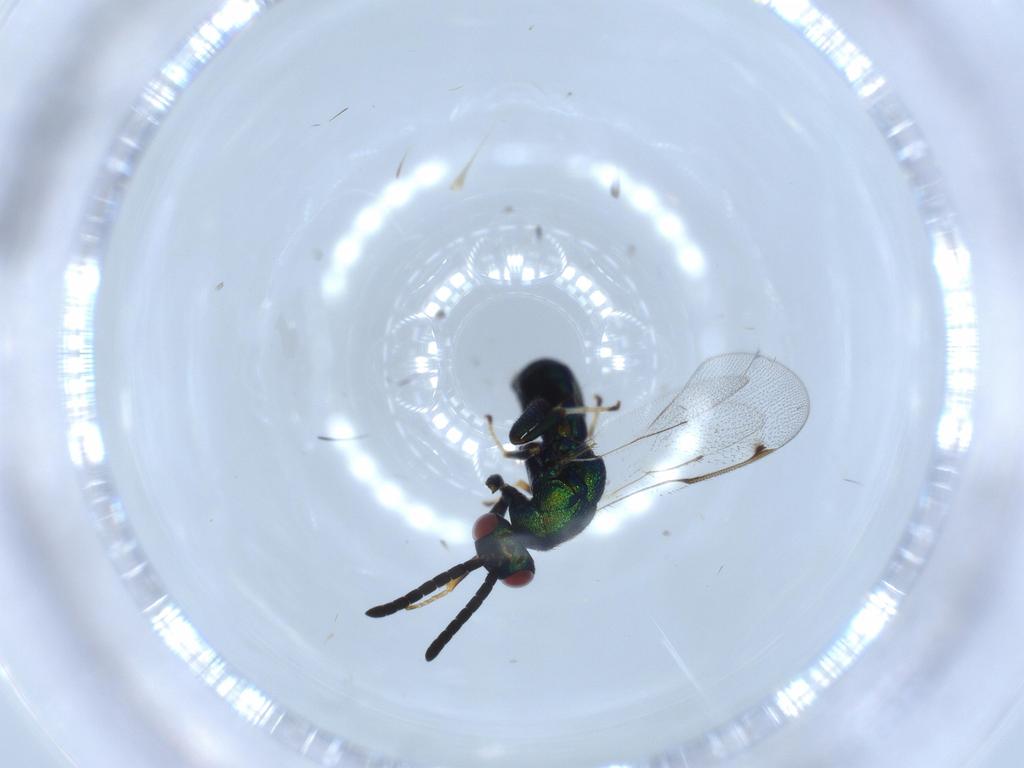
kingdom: Animalia
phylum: Arthropoda
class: Insecta
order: Hymenoptera
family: Torymidae
